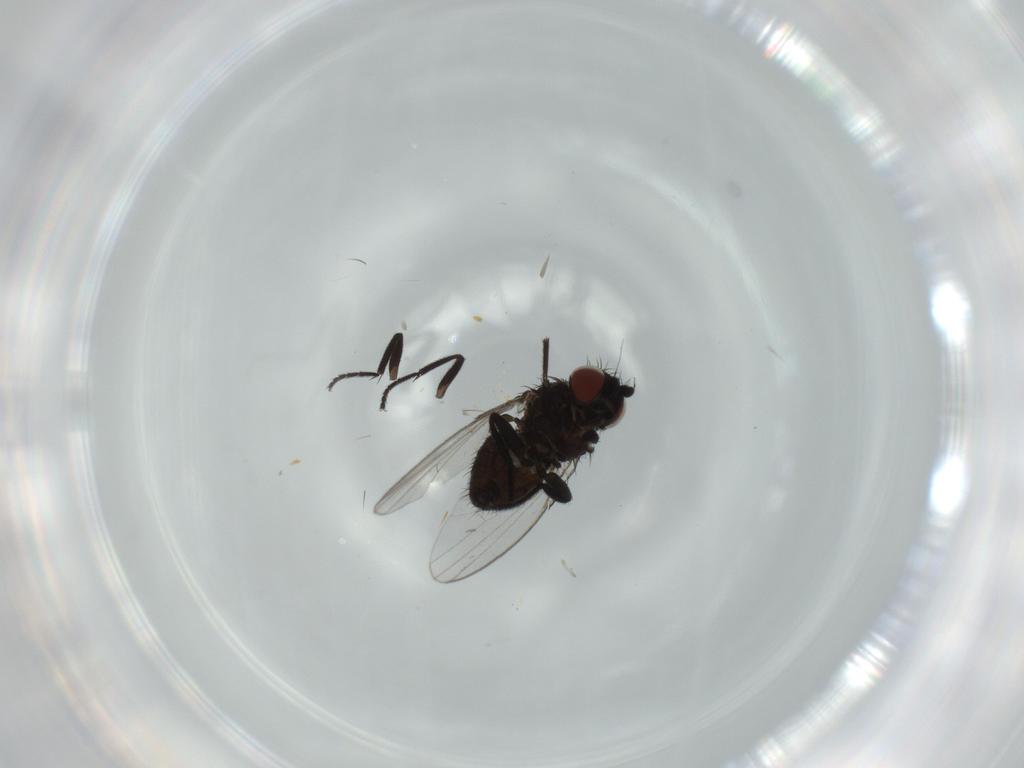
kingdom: Animalia
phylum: Arthropoda
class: Insecta
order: Diptera
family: Milichiidae
